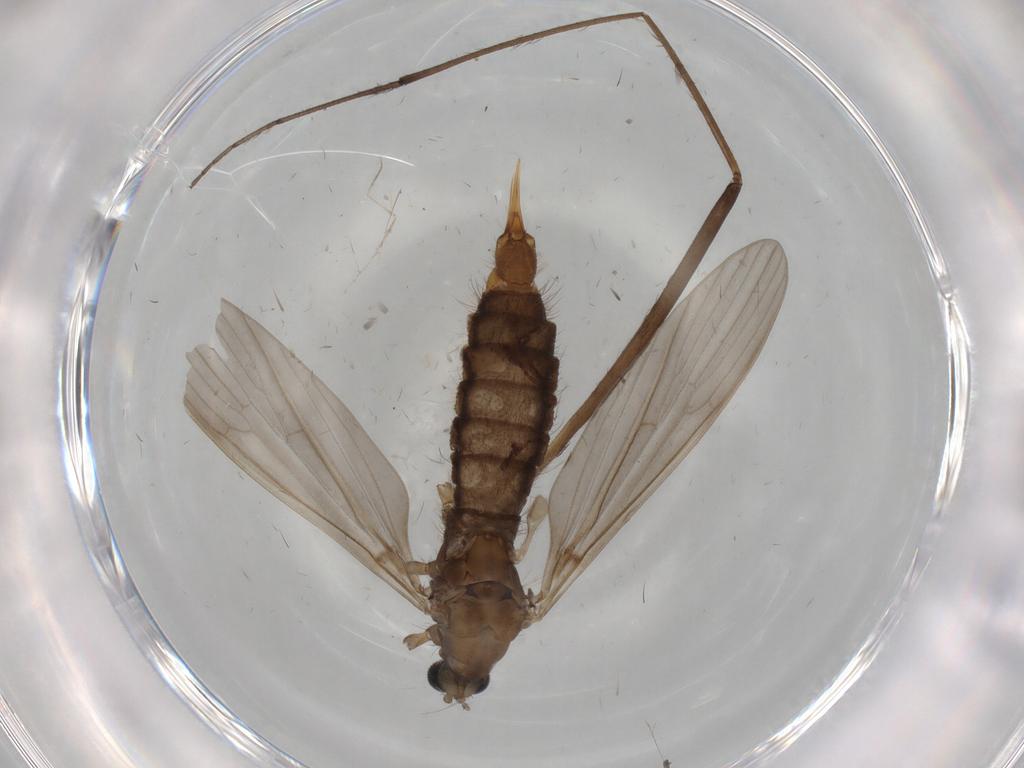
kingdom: Animalia
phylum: Arthropoda
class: Insecta
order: Diptera
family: Limoniidae
